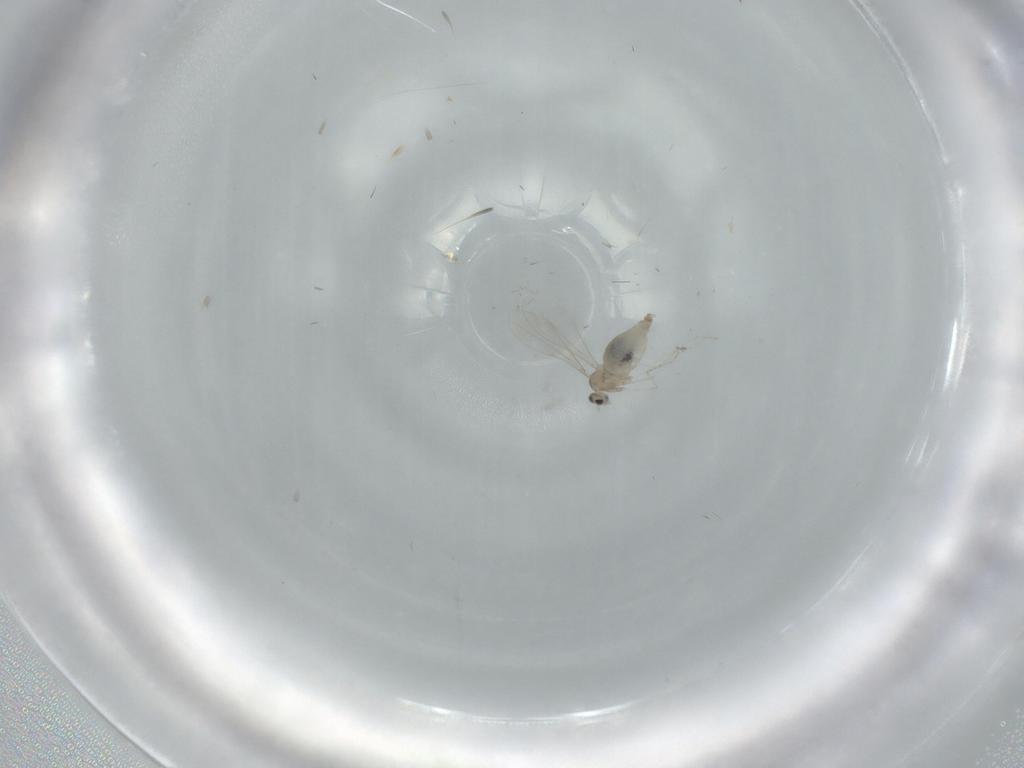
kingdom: Animalia
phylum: Arthropoda
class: Insecta
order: Diptera
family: Cecidomyiidae
